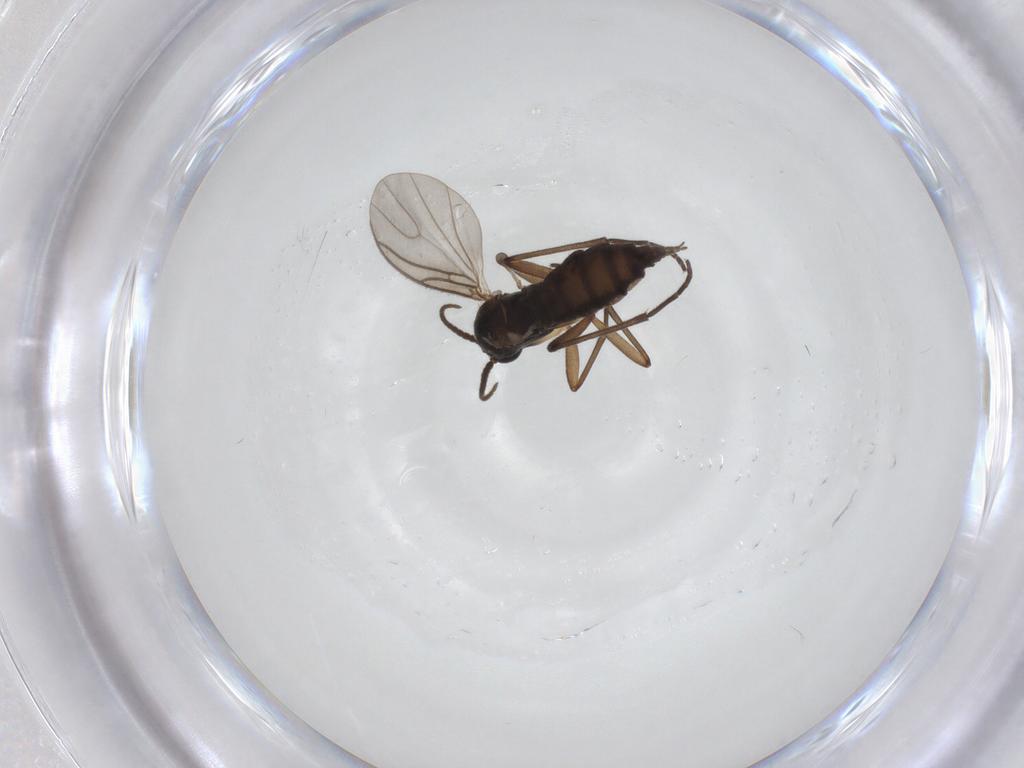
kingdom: Animalia
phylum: Arthropoda
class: Insecta
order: Diptera
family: Sciaridae
